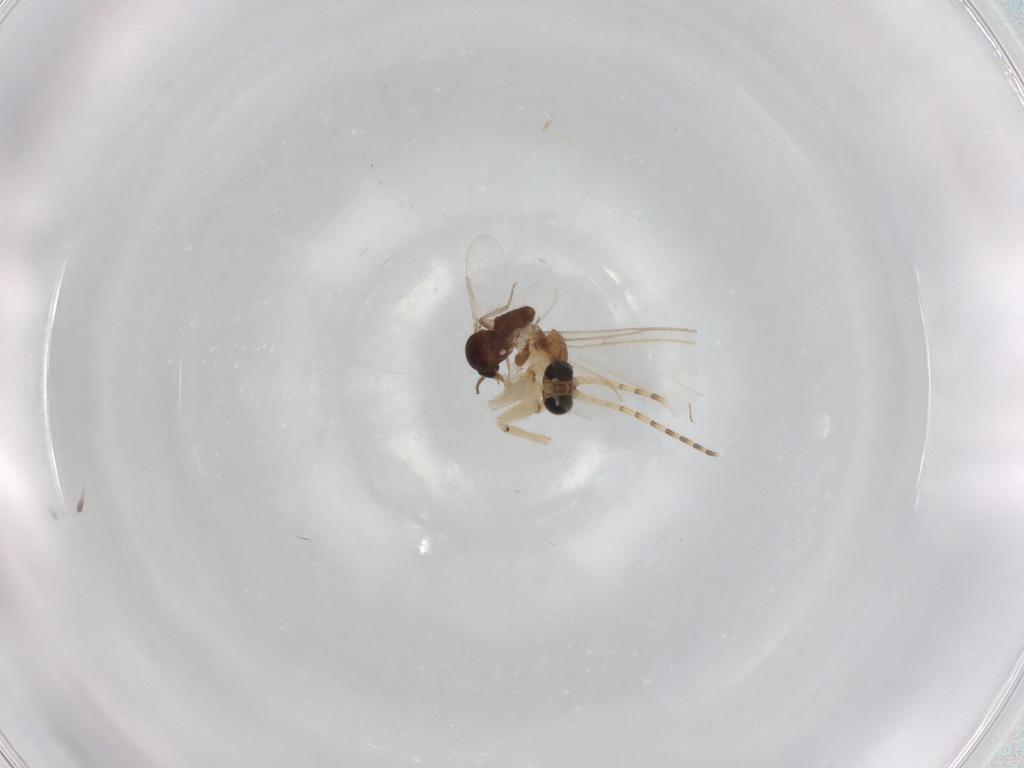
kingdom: Animalia
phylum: Arthropoda
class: Insecta
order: Diptera
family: Ceratopogonidae
